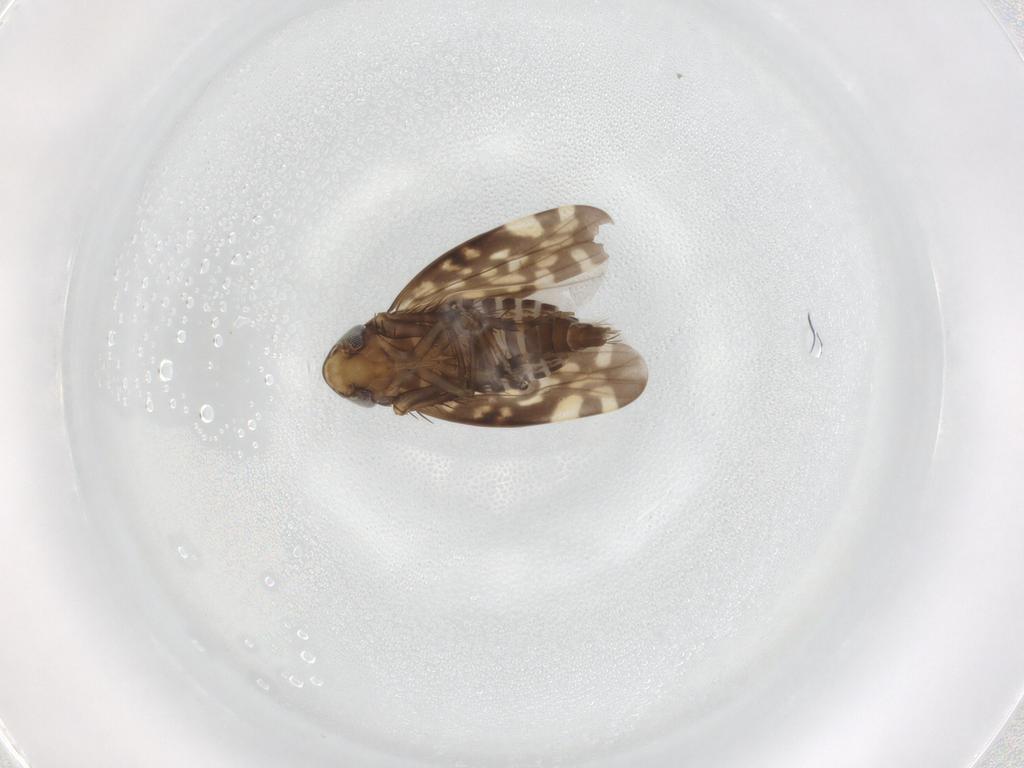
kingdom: Animalia
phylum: Arthropoda
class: Insecta
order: Hemiptera
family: Cicadellidae
